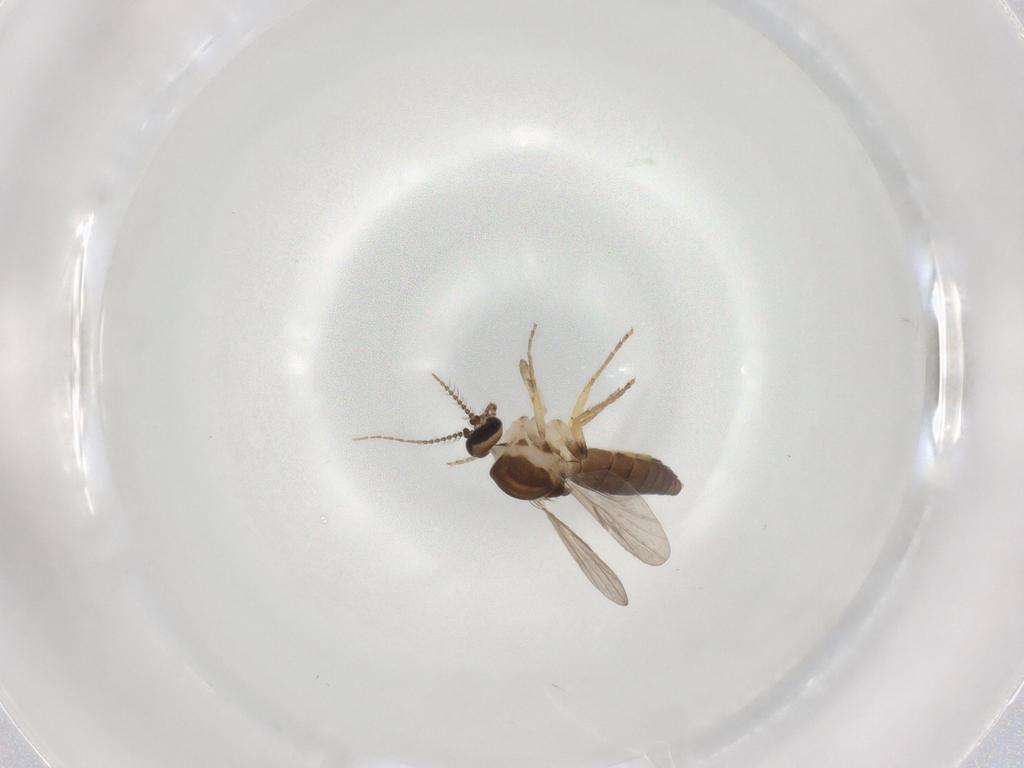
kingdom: Animalia
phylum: Arthropoda
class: Insecta
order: Diptera
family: Ceratopogonidae
